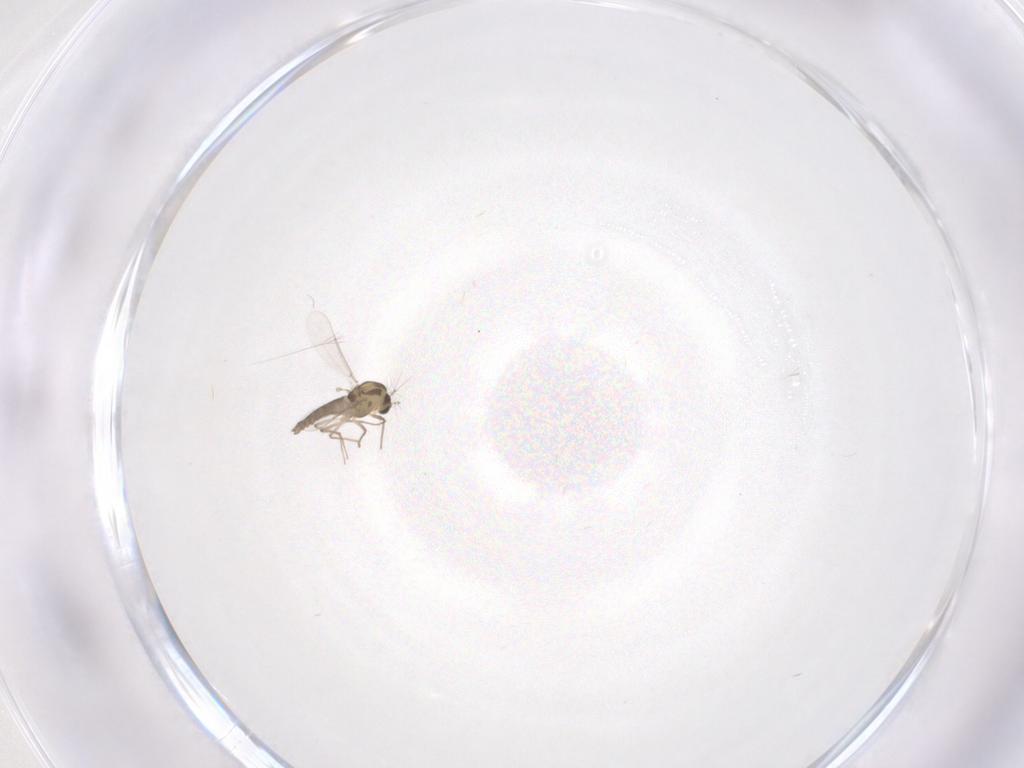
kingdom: Animalia
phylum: Arthropoda
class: Insecta
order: Diptera
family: Chironomidae
